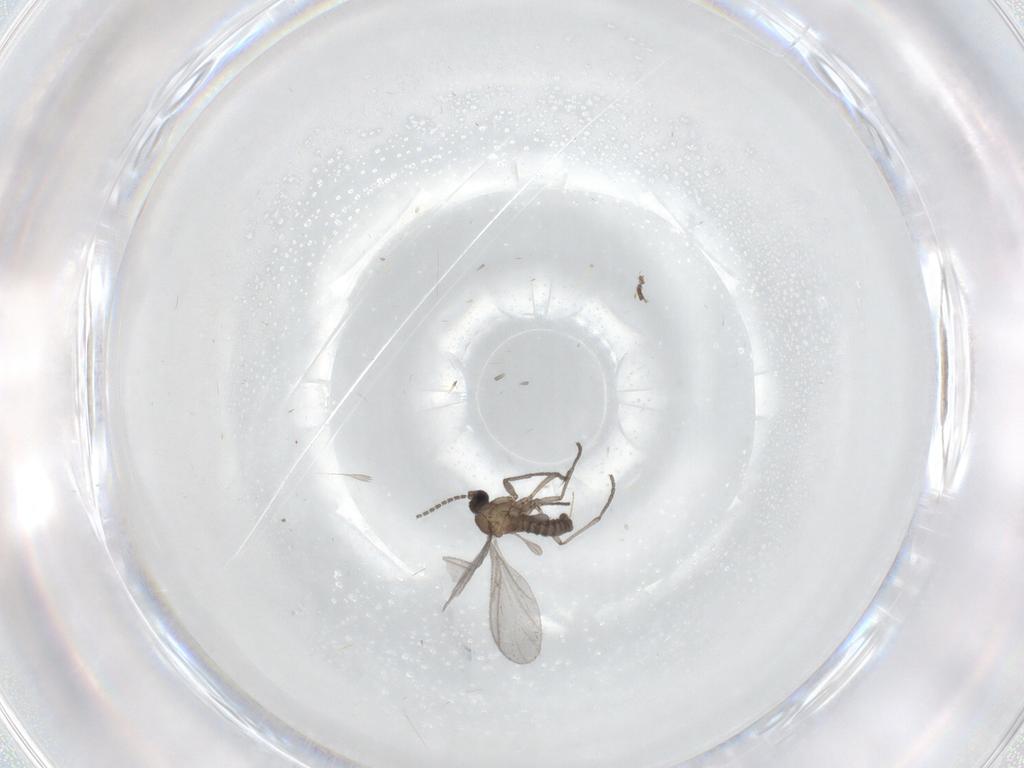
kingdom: Animalia
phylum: Arthropoda
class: Insecta
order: Diptera
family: Sciaridae
